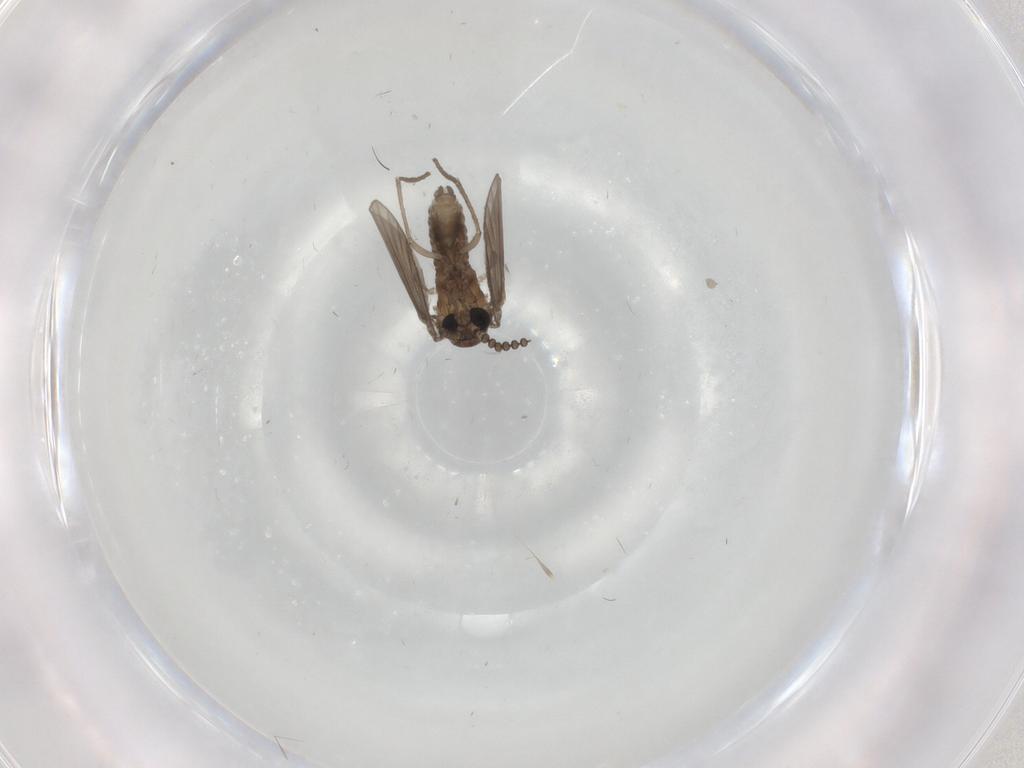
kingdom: Animalia
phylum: Arthropoda
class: Insecta
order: Diptera
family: Psychodidae
